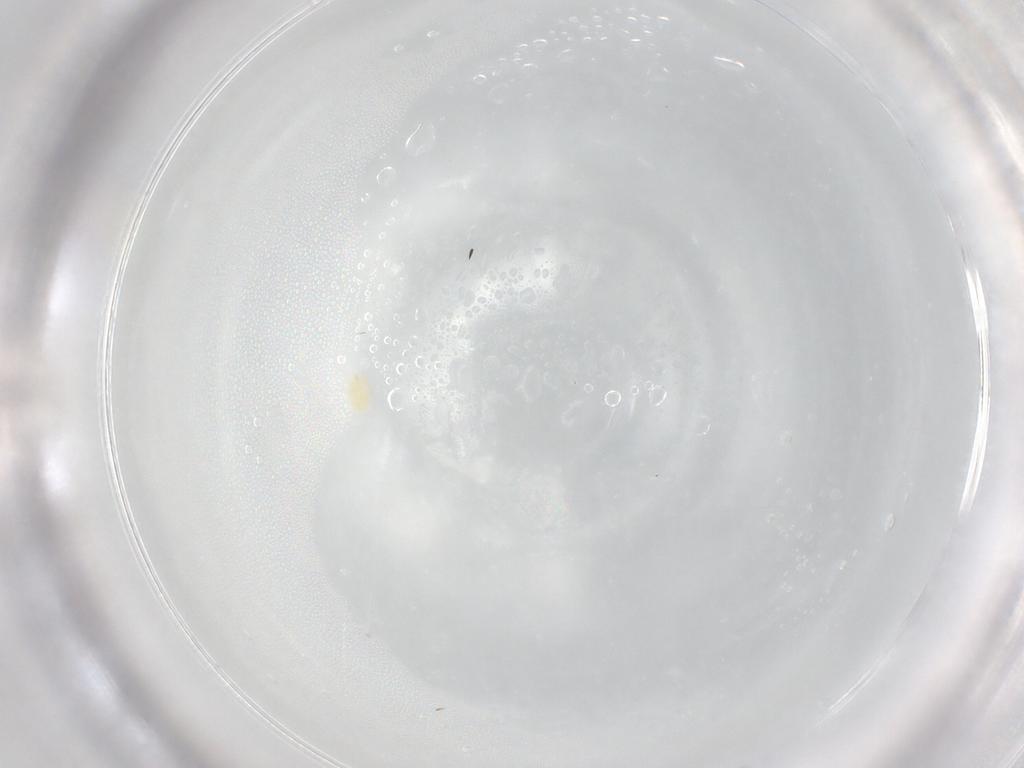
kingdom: Animalia
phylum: Arthropoda
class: Arachnida
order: Trombidiformes
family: Tetranychidae
